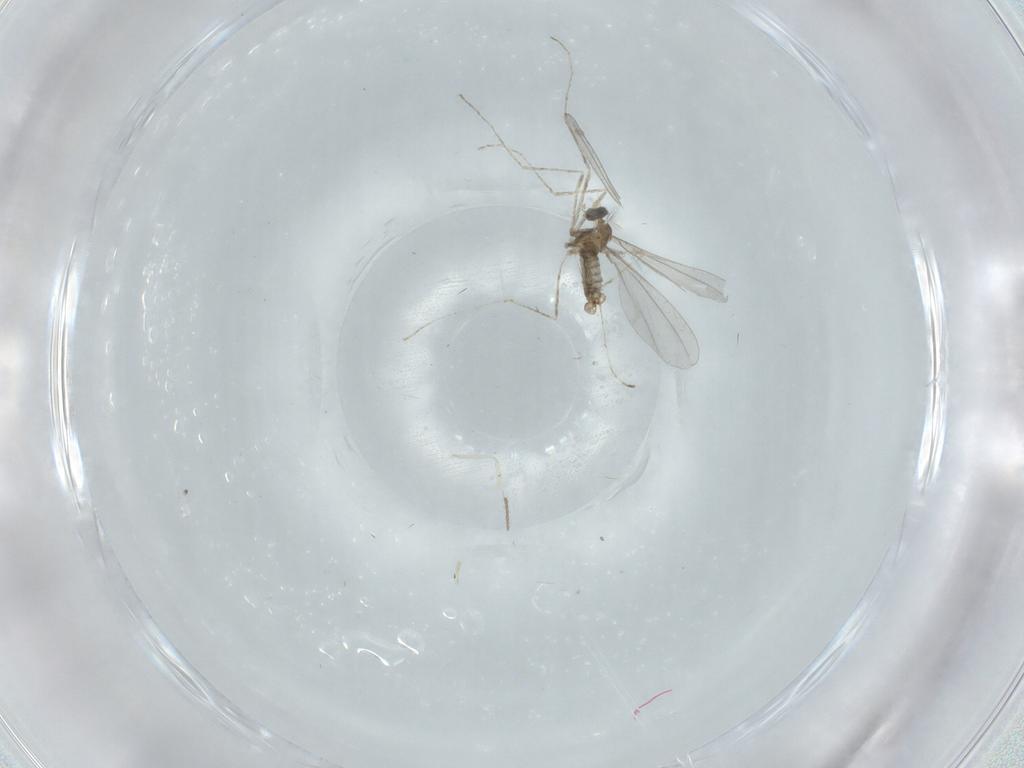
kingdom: Animalia
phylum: Arthropoda
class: Insecta
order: Diptera
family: Cecidomyiidae
